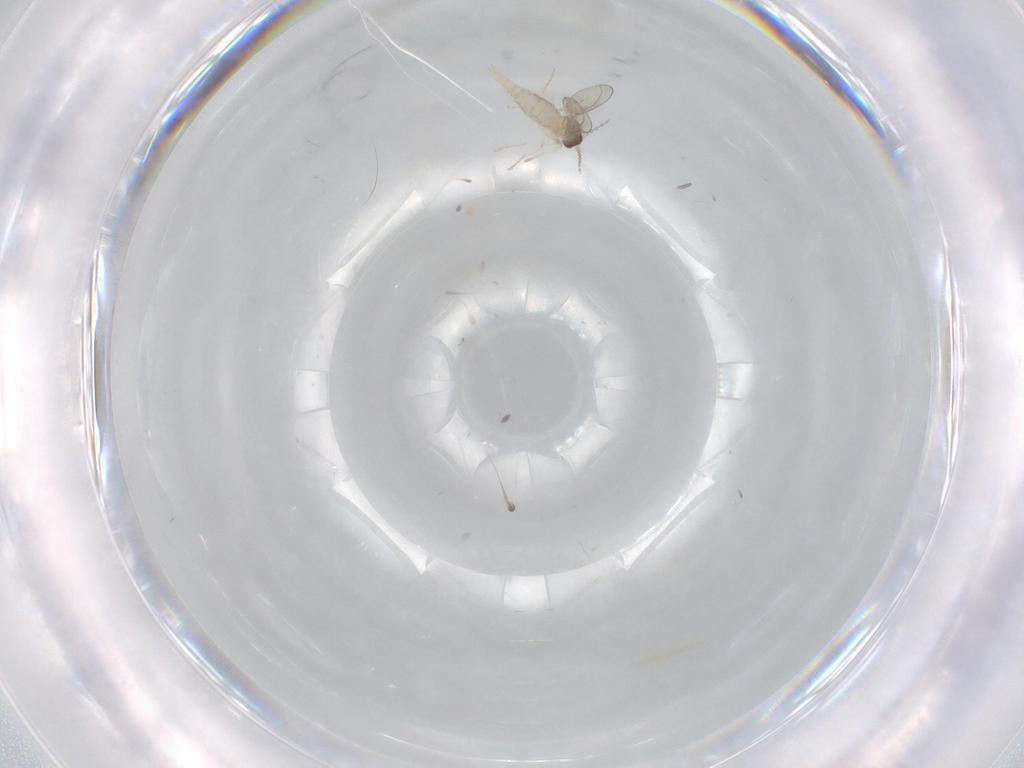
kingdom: Animalia
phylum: Arthropoda
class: Insecta
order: Diptera
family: Cecidomyiidae
